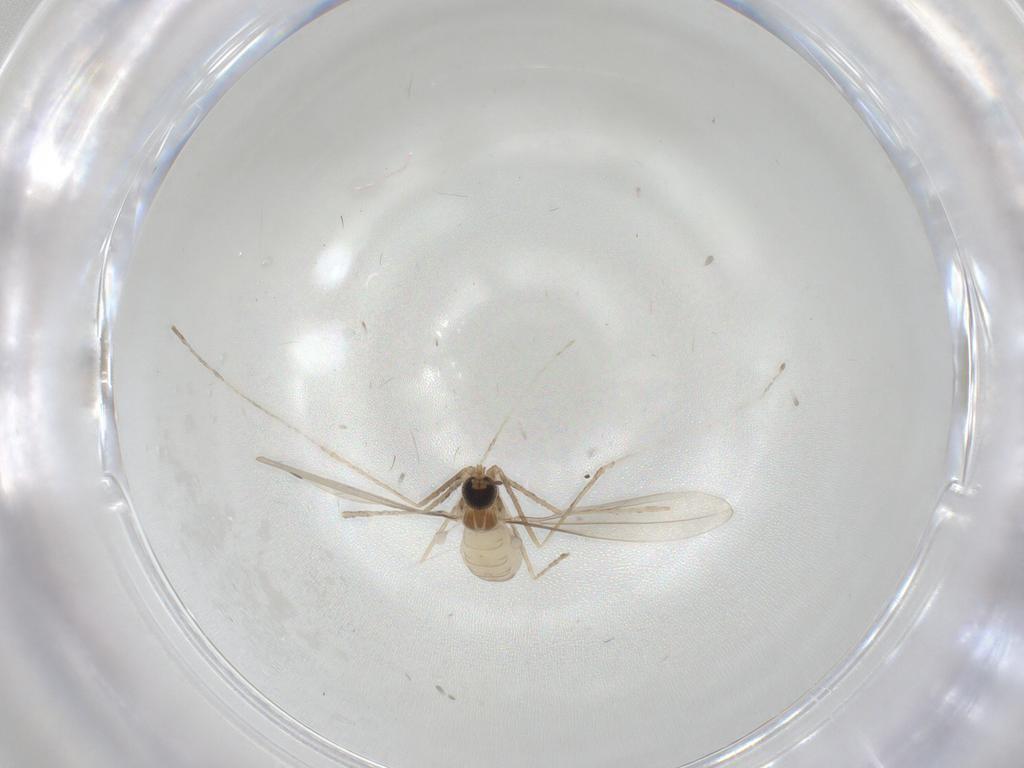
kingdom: Animalia
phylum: Arthropoda
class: Insecta
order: Diptera
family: Cecidomyiidae
